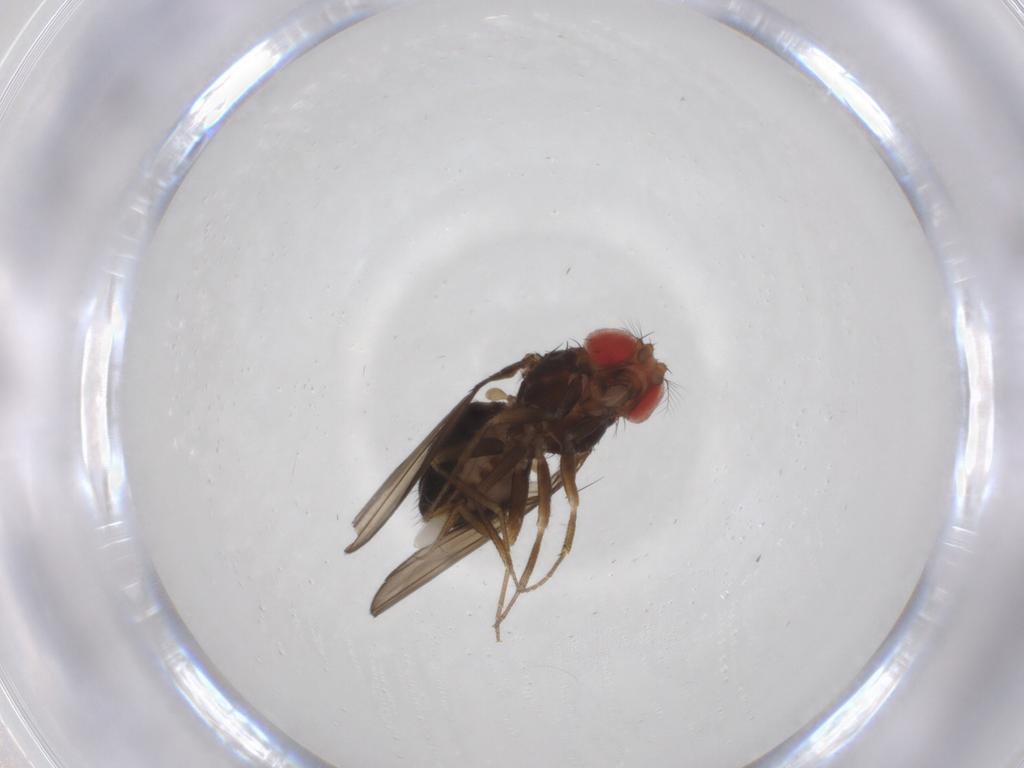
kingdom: Animalia
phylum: Arthropoda
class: Insecta
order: Diptera
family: Drosophilidae
